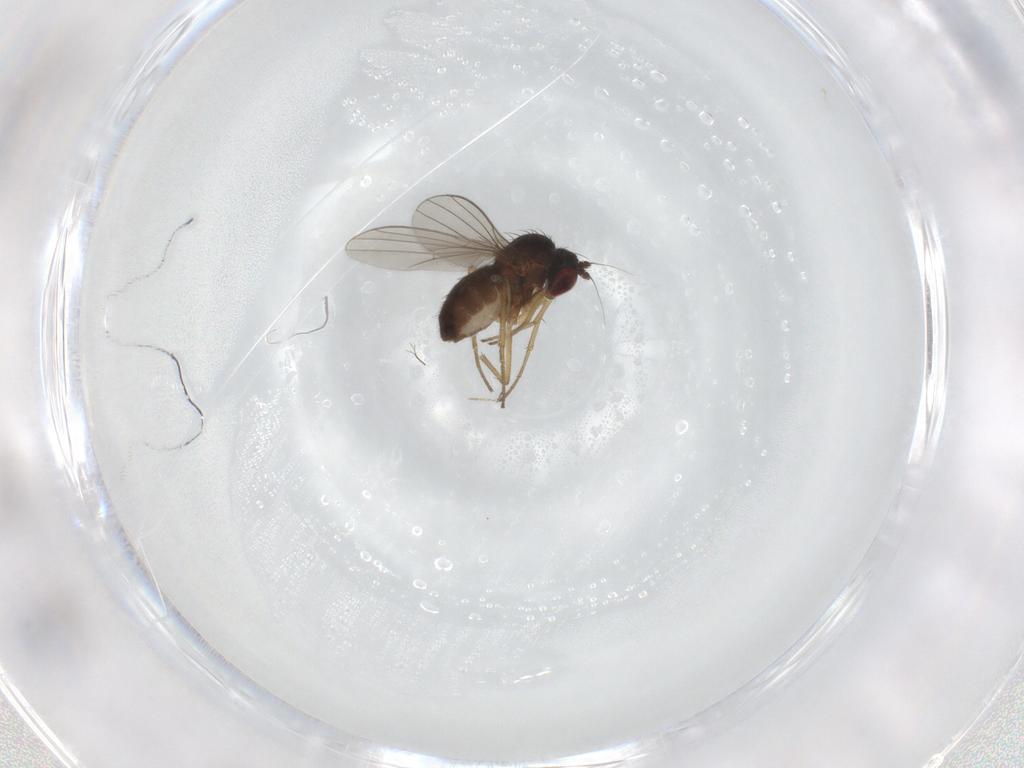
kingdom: Animalia
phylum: Arthropoda
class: Insecta
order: Diptera
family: Dolichopodidae
